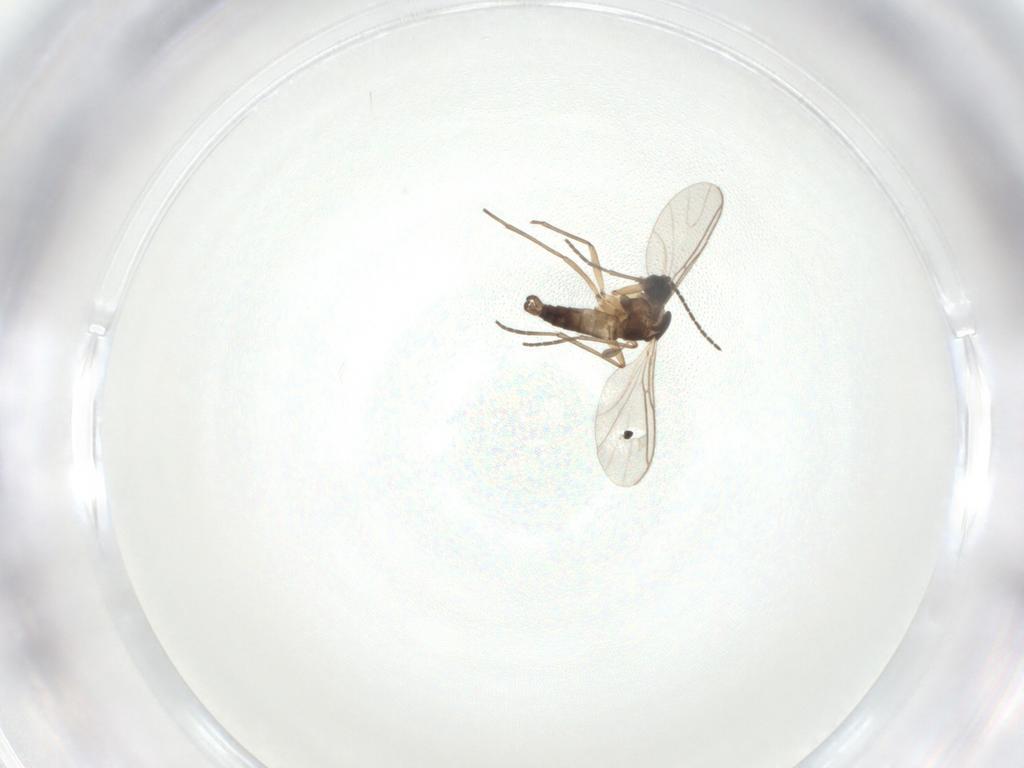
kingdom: Animalia
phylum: Arthropoda
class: Insecta
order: Diptera
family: Sciaridae
